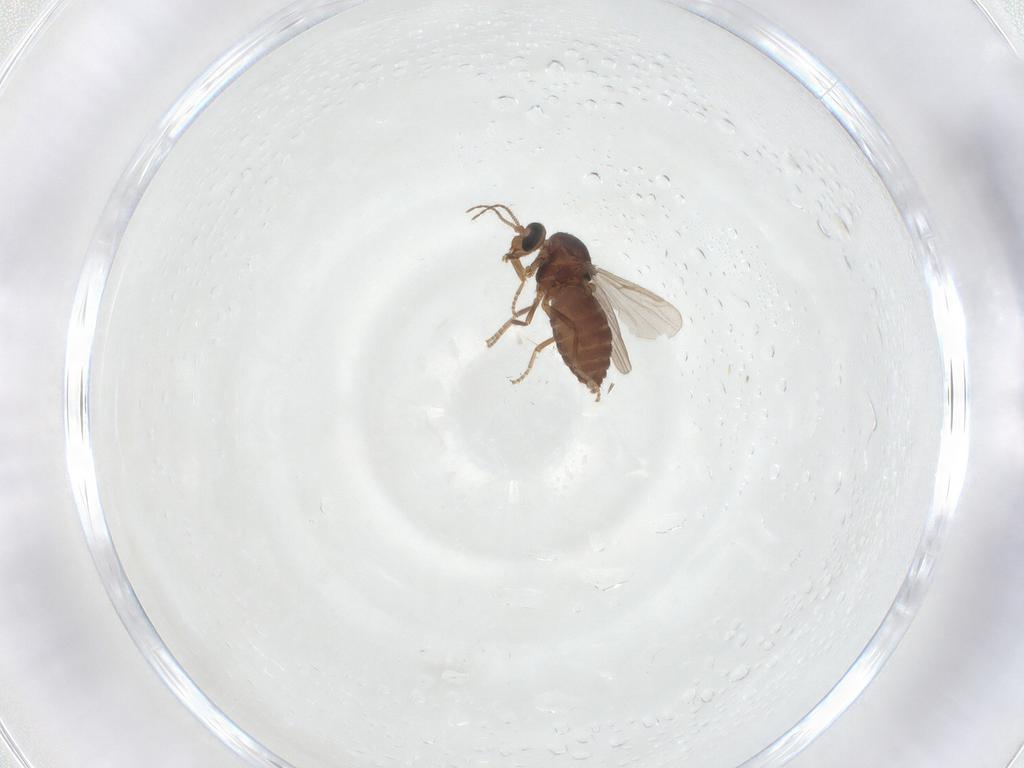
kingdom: Animalia
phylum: Arthropoda
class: Insecta
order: Diptera
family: Ceratopogonidae
